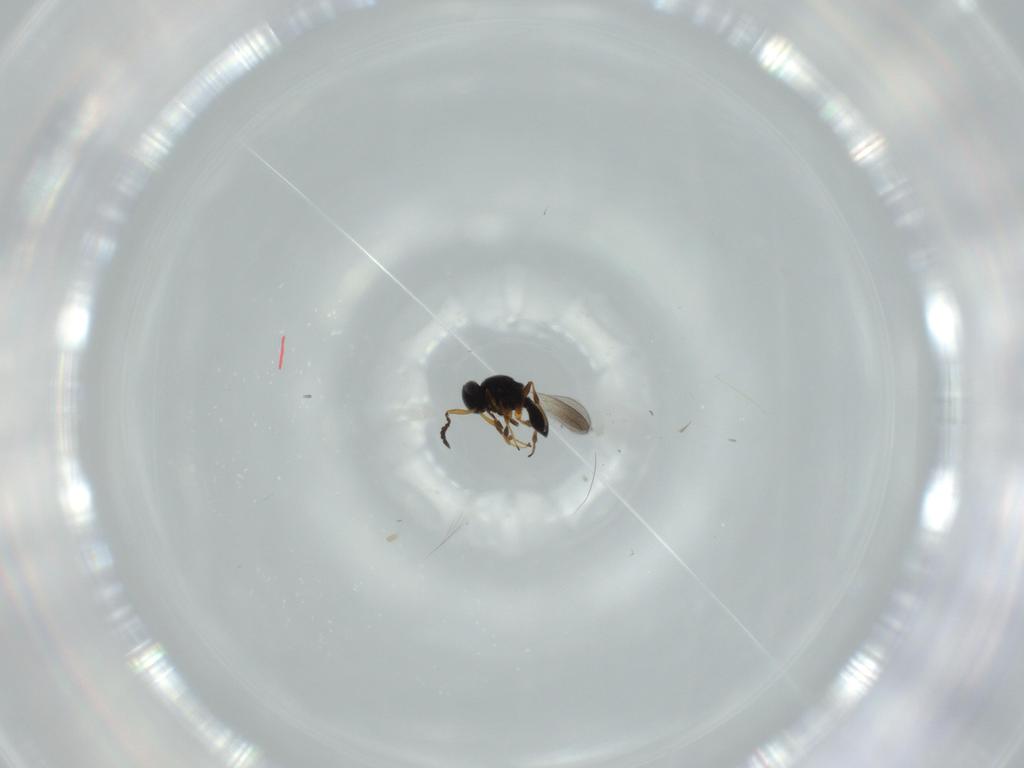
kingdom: Animalia
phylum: Arthropoda
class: Insecta
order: Hymenoptera
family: Platygastridae
